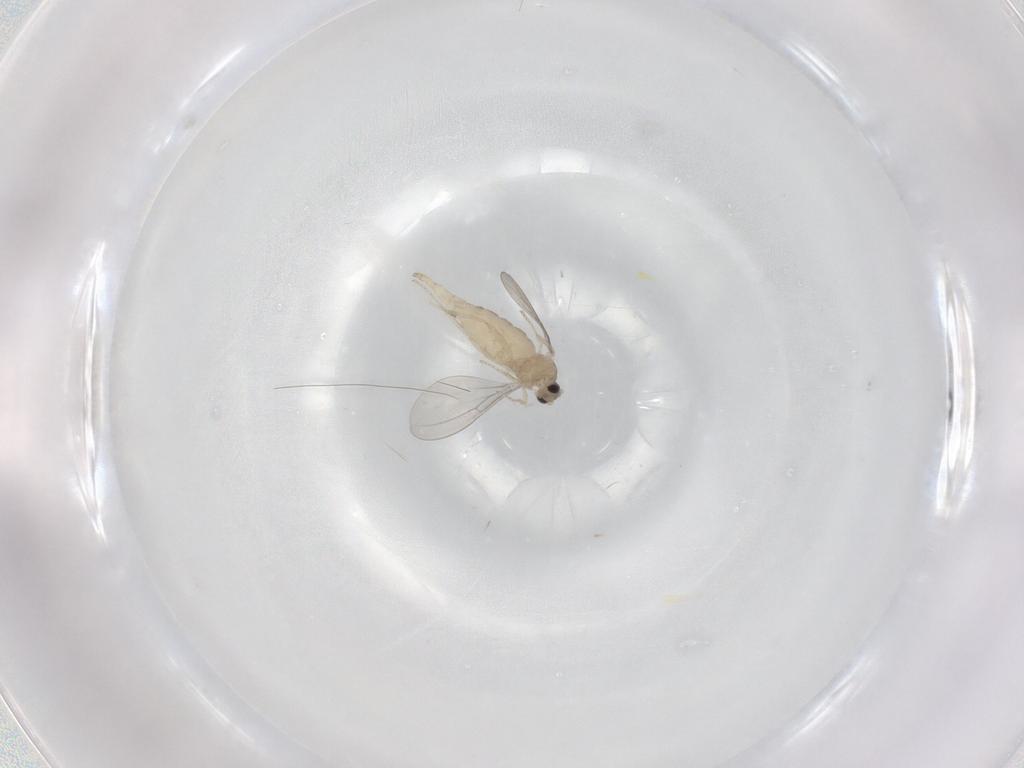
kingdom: Animalia
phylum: Arthropoda
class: Insecta
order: Diptera
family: Cecidomyiidae
